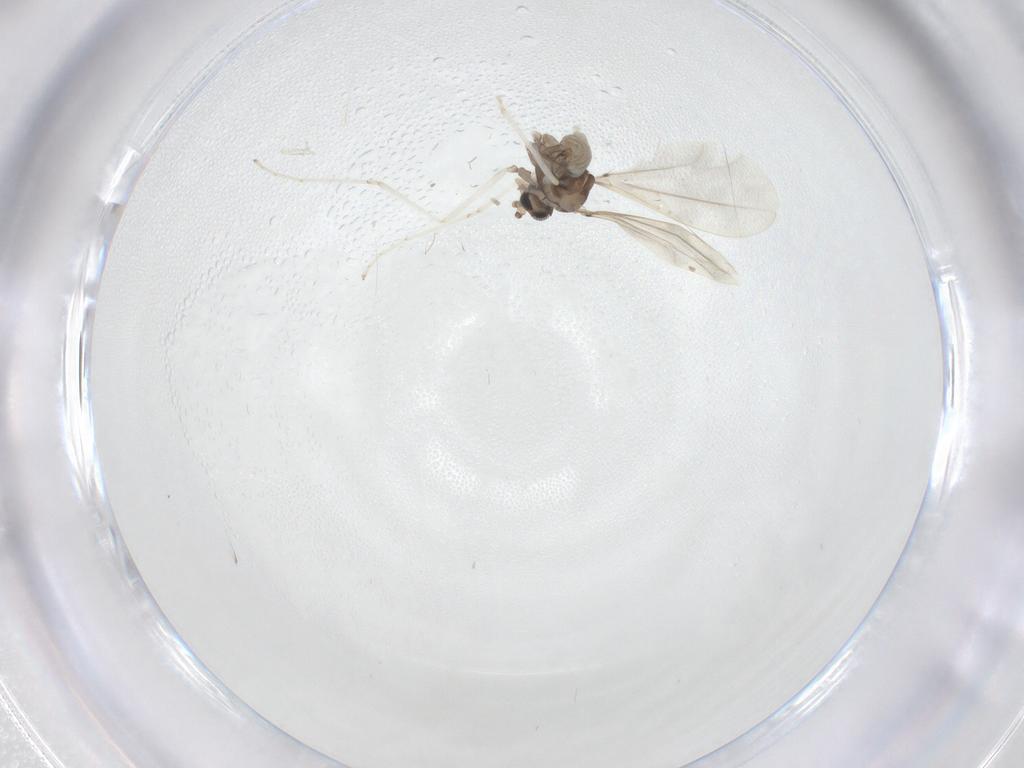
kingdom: Animalia
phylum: Arthropoda
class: Insecta
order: Diptera
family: Cecidomyiidae
